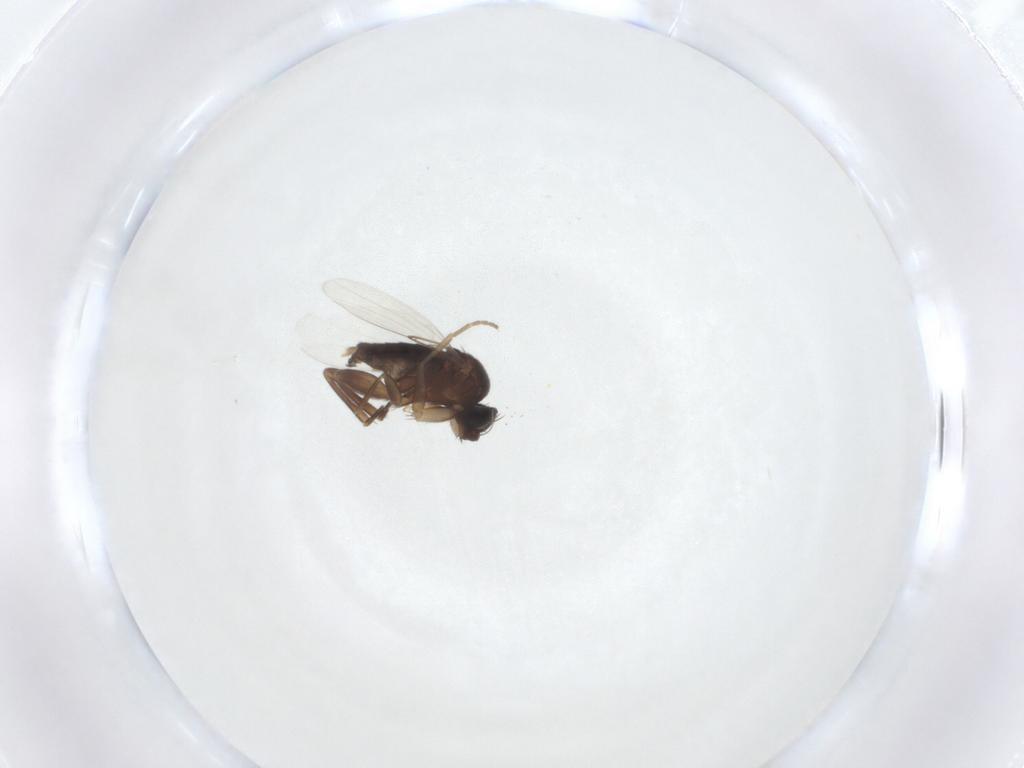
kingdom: Animalia
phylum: Arthropoda
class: Insecta
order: Diptera
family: Phoridae
